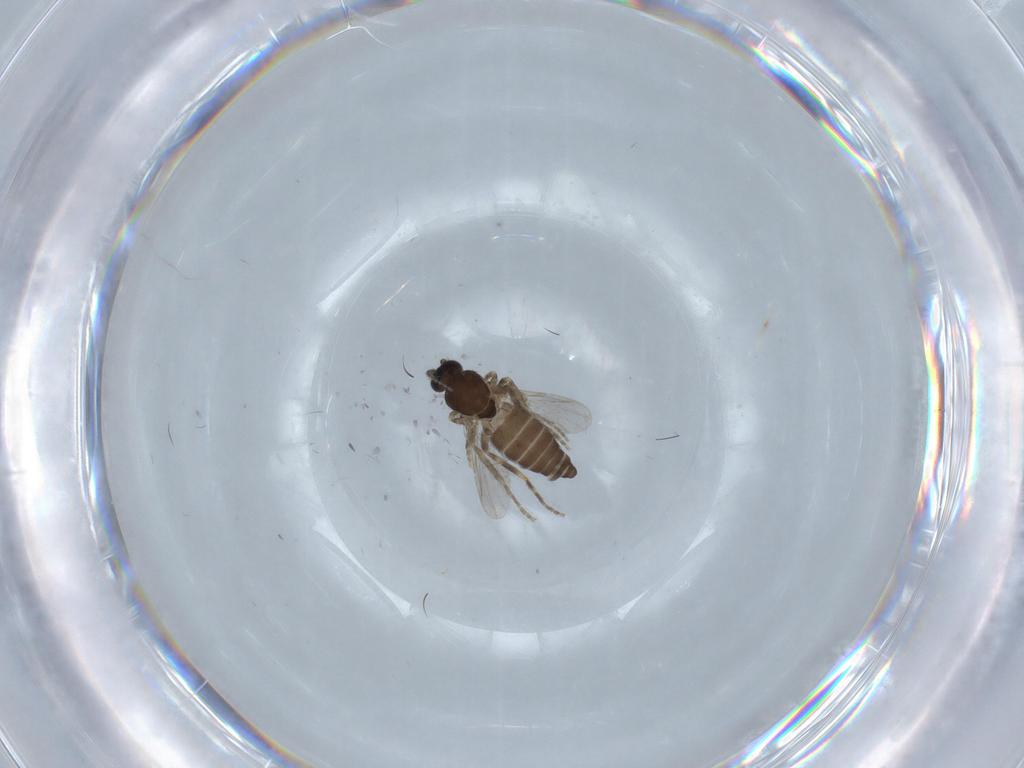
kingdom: Animalia
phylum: Arthropoda
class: Insecta
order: Diptera
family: Ceratopogonidae
